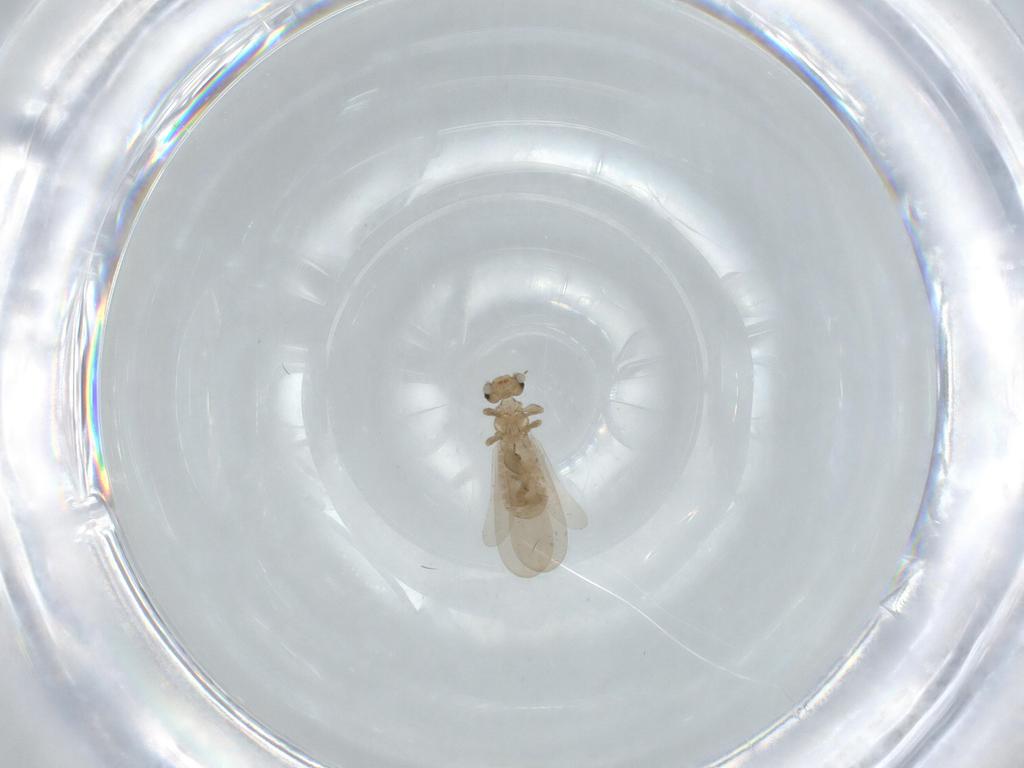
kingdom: Animalia
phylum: Arthropoda
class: Insecta
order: Psocodea
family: Liposcelididae
